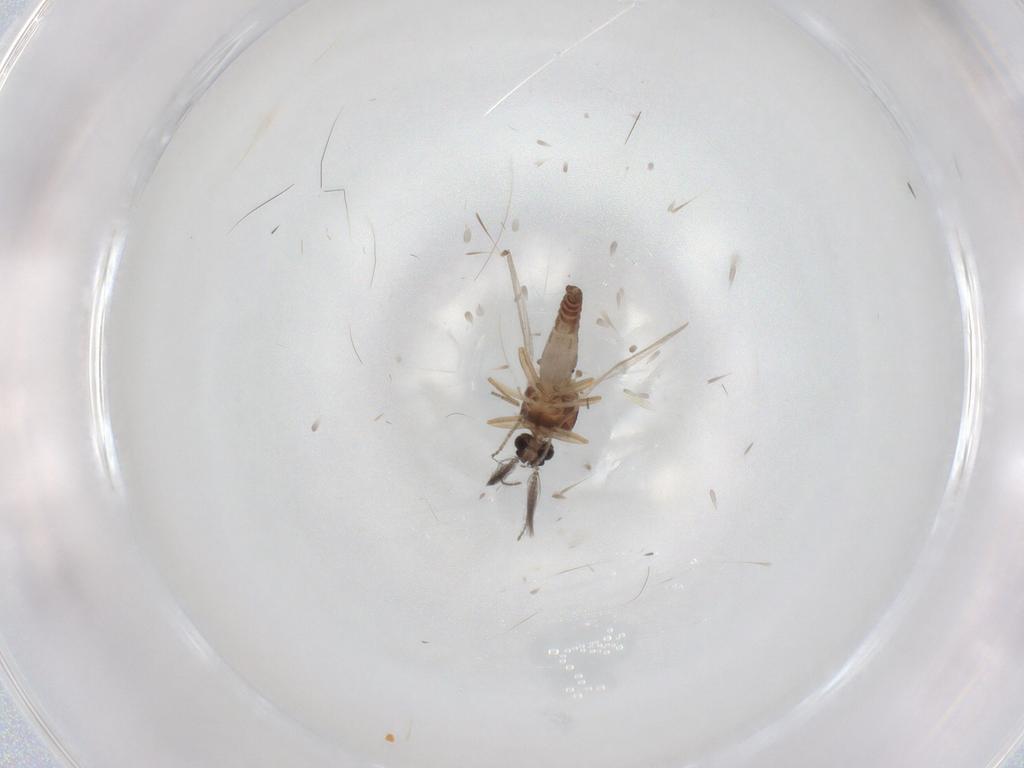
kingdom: Animalia
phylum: Arthropoda
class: Insecta
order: Diptera
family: Ceratopogonidae
